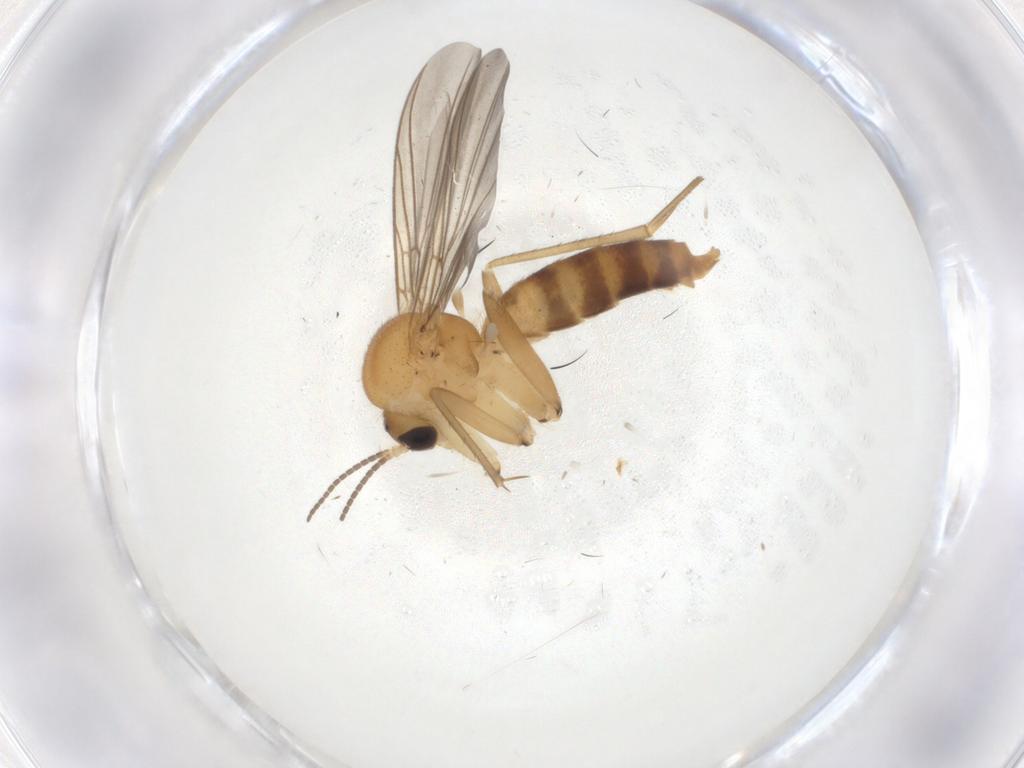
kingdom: Animalia
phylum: Arthropoda
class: Insecta
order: Diptera
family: Mycetophilidae
